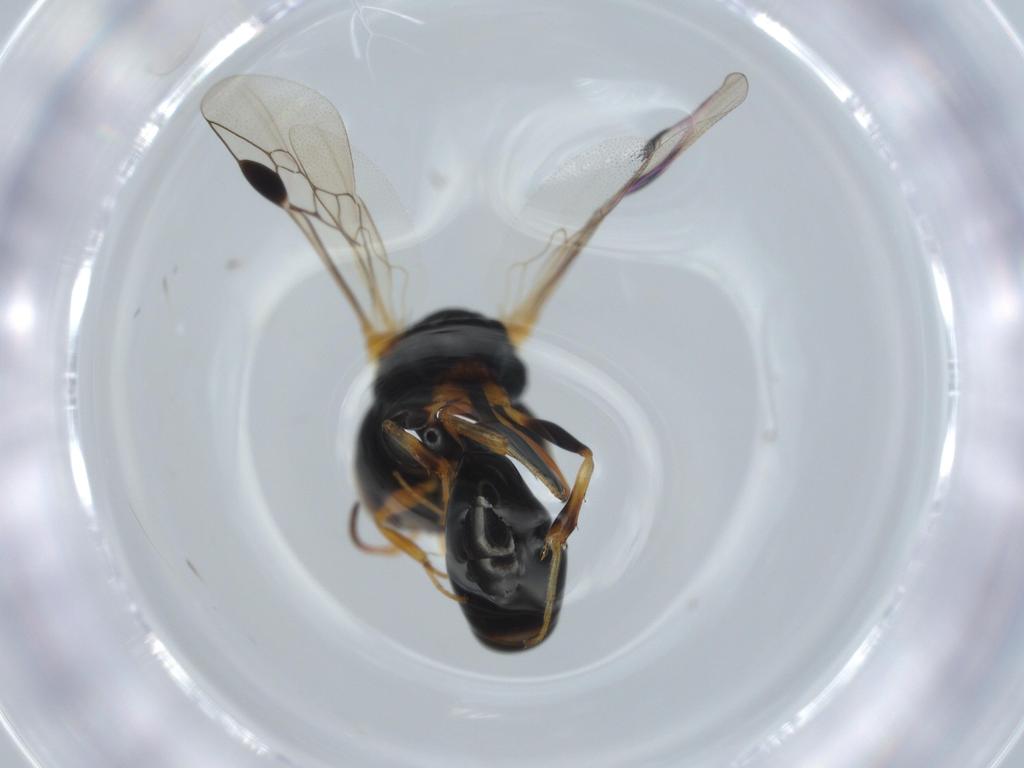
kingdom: Animalia
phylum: Arthropoda
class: Insecta
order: Hymenoptera
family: Crabronidae
